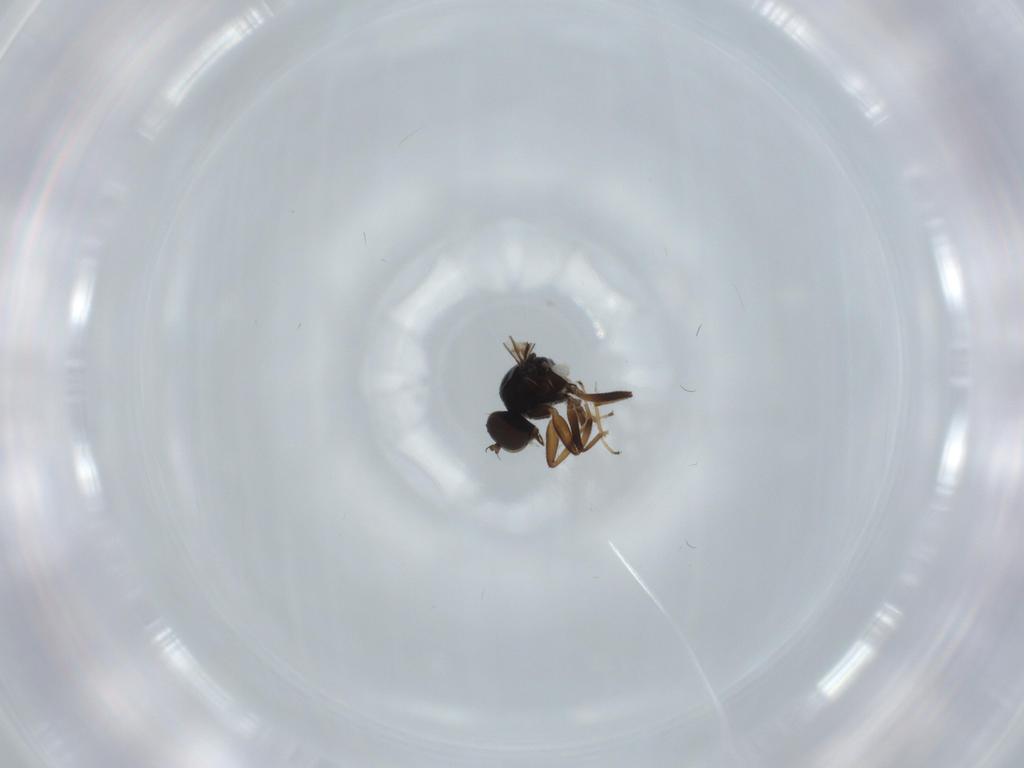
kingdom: Animalia
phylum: Arthropoda
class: Insecta
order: Diptera
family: Hybotidae
